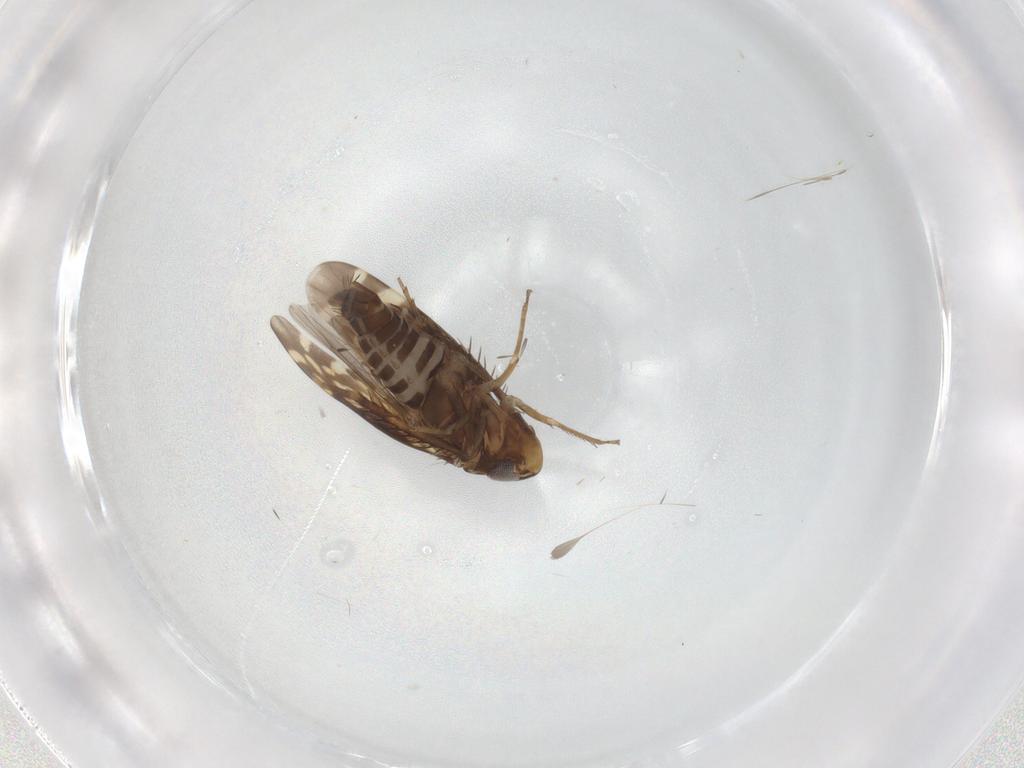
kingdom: Animalia
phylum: Arthropoda
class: Insecta
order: Hemiptera
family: Cicadellidae
